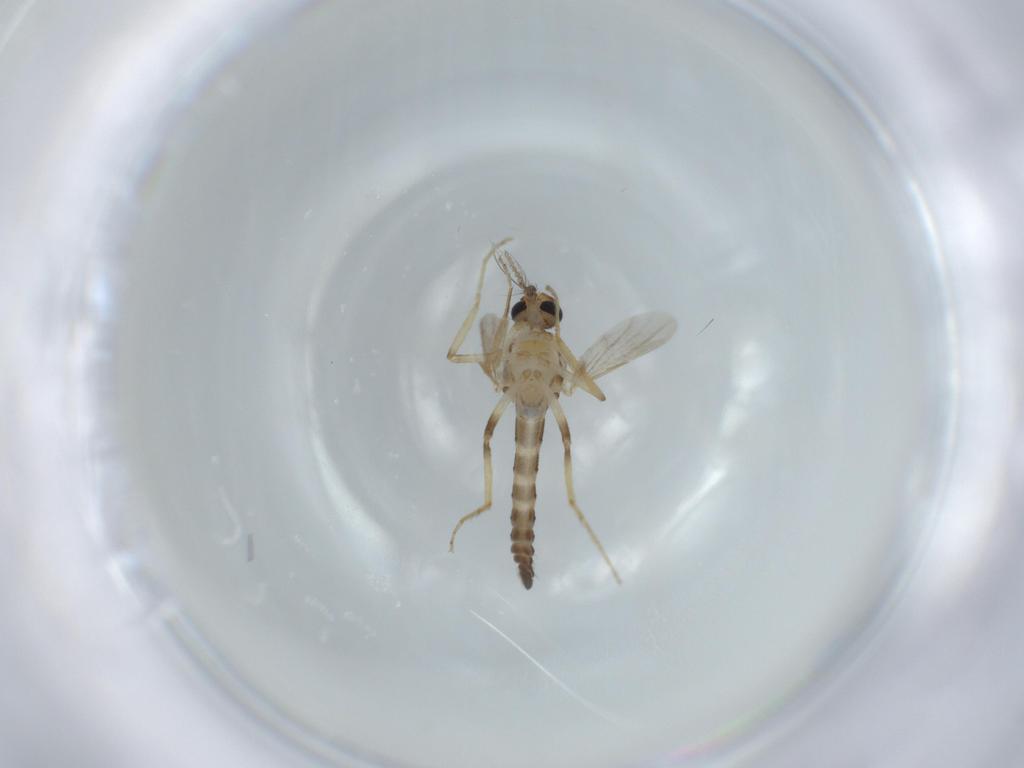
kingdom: Animalia
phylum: Arthropoda
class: Insecta
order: Diptera
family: Ceratopogonidae
